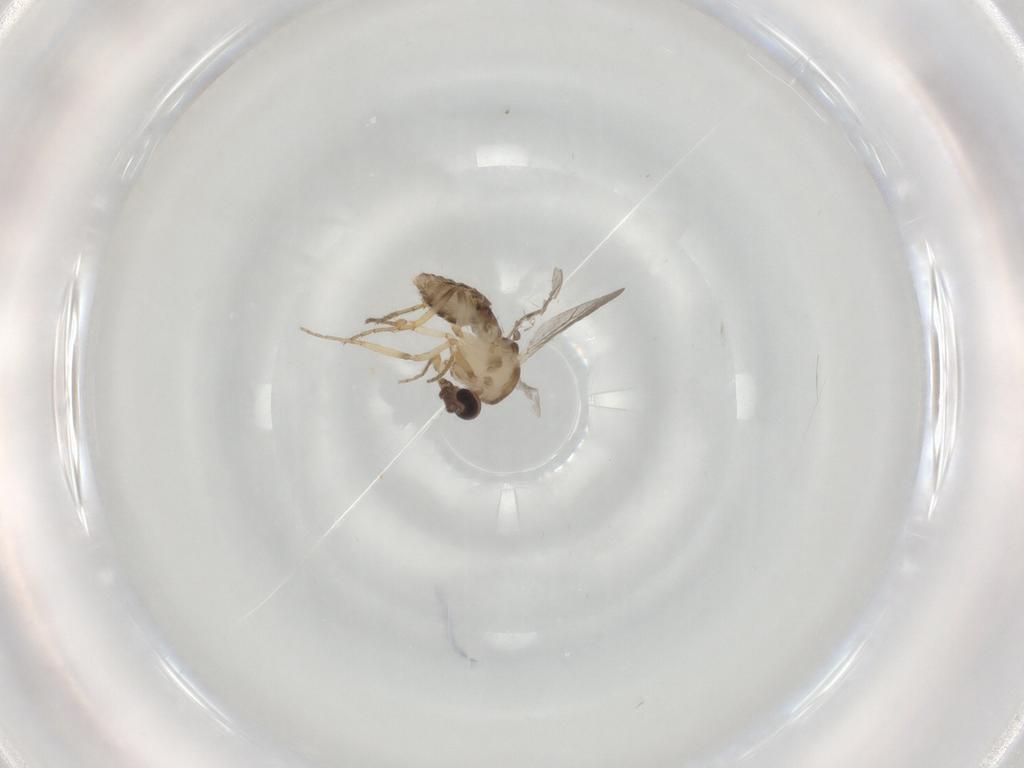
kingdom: Animalia
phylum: Arthropoda
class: Insecta
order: Diptera
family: Ceratopogonidae
